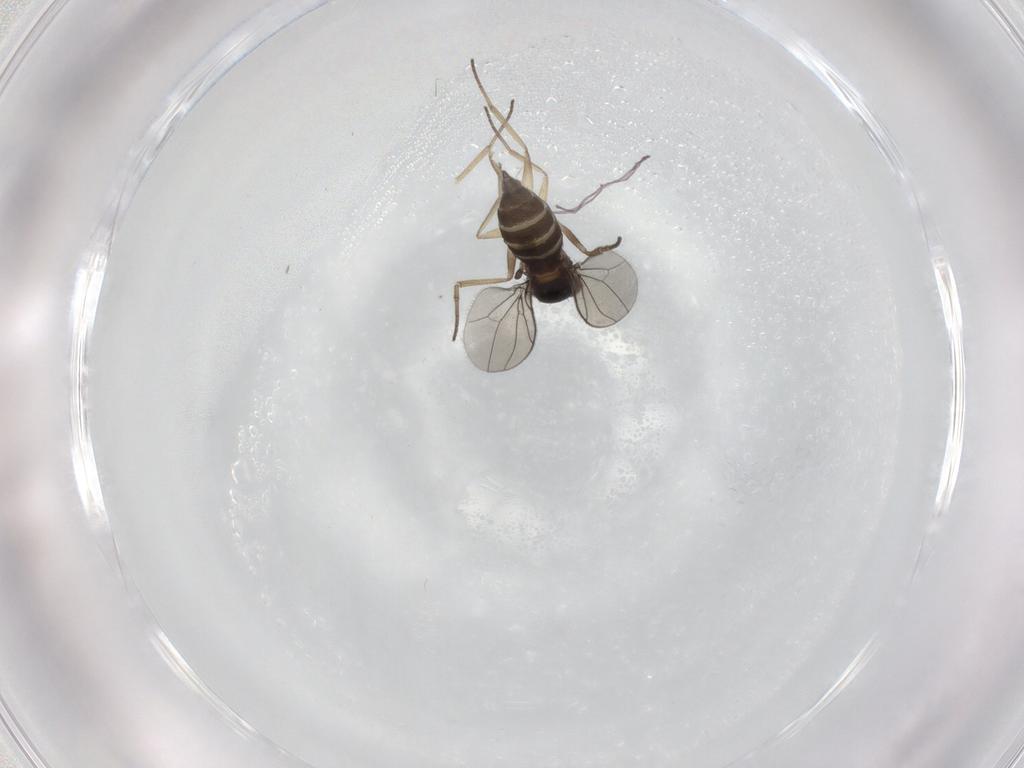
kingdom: Animalia
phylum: Arthropoda
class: Insecta
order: Diptera
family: Dolichopodidae
